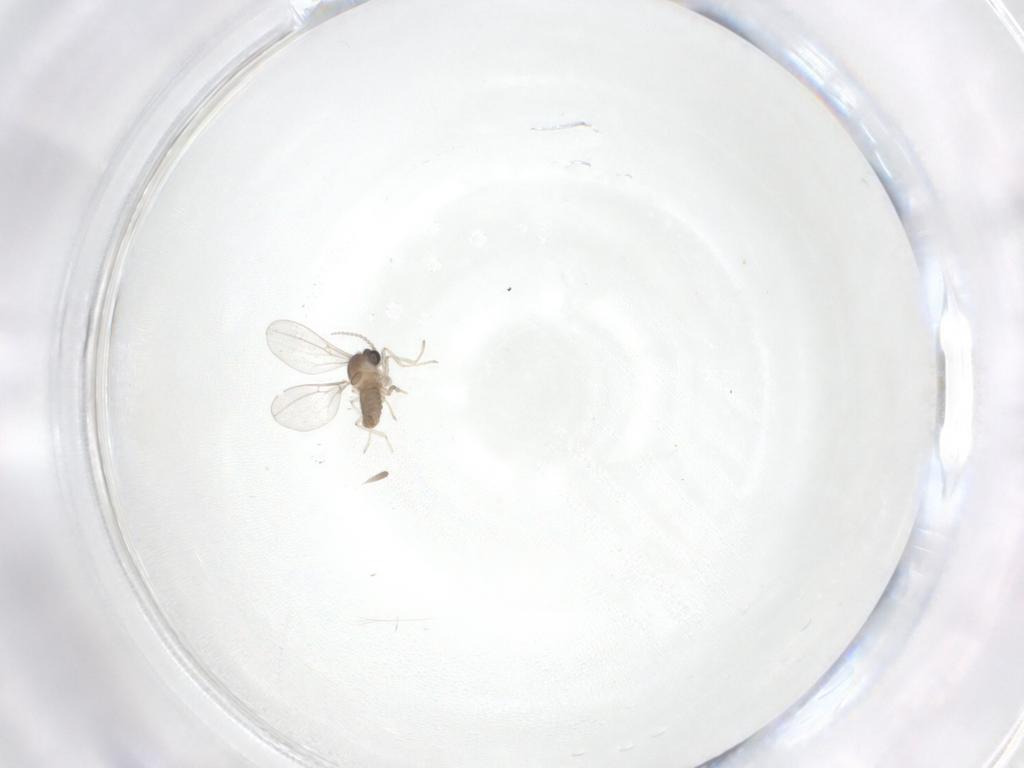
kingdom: Animalia
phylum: Arthropoda
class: Insecta
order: Diptera
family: Cecidomyiidae
